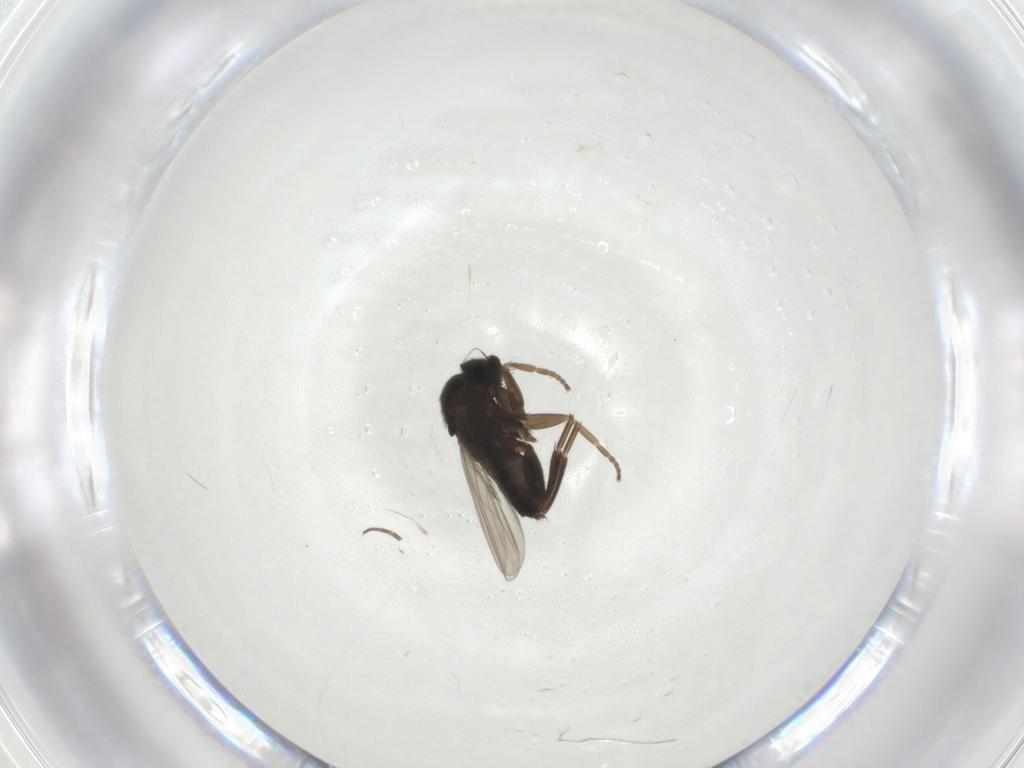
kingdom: Animalia
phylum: Arthropoda
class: Insecta
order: Diptera
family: Phoridae
